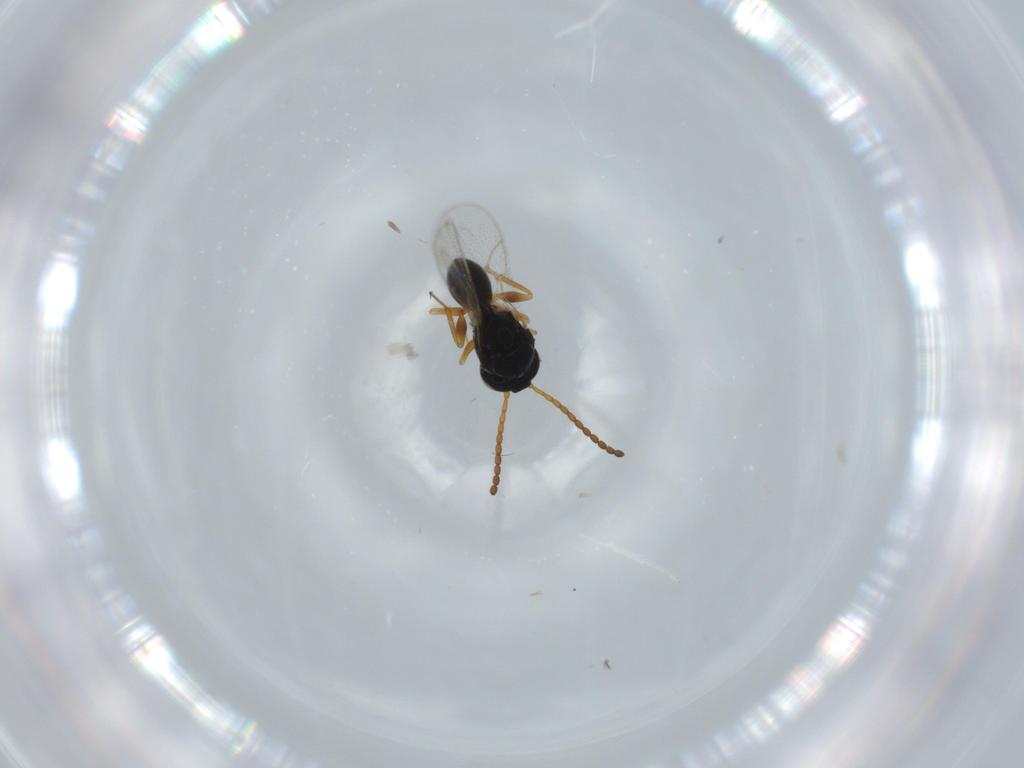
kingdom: Animalia
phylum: Arthropoda
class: Insecta
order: Hymenoptera
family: Figitidae
